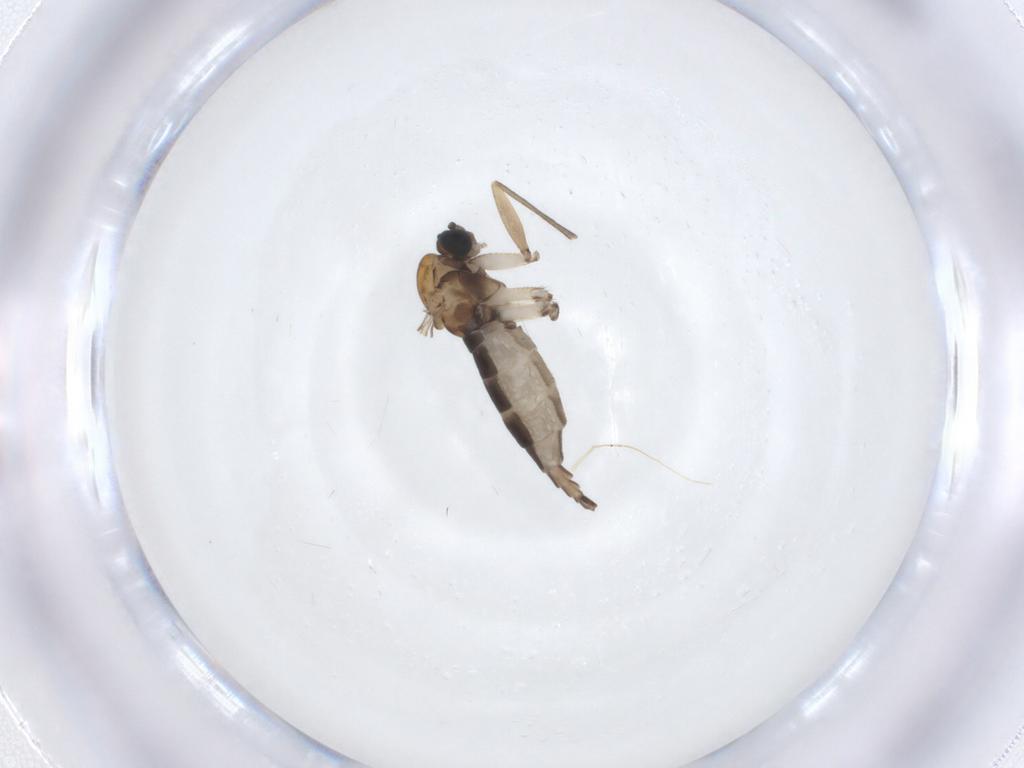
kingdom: Animalia
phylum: Arthropoda
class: Insecta
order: Diptera
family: Sciaridae
